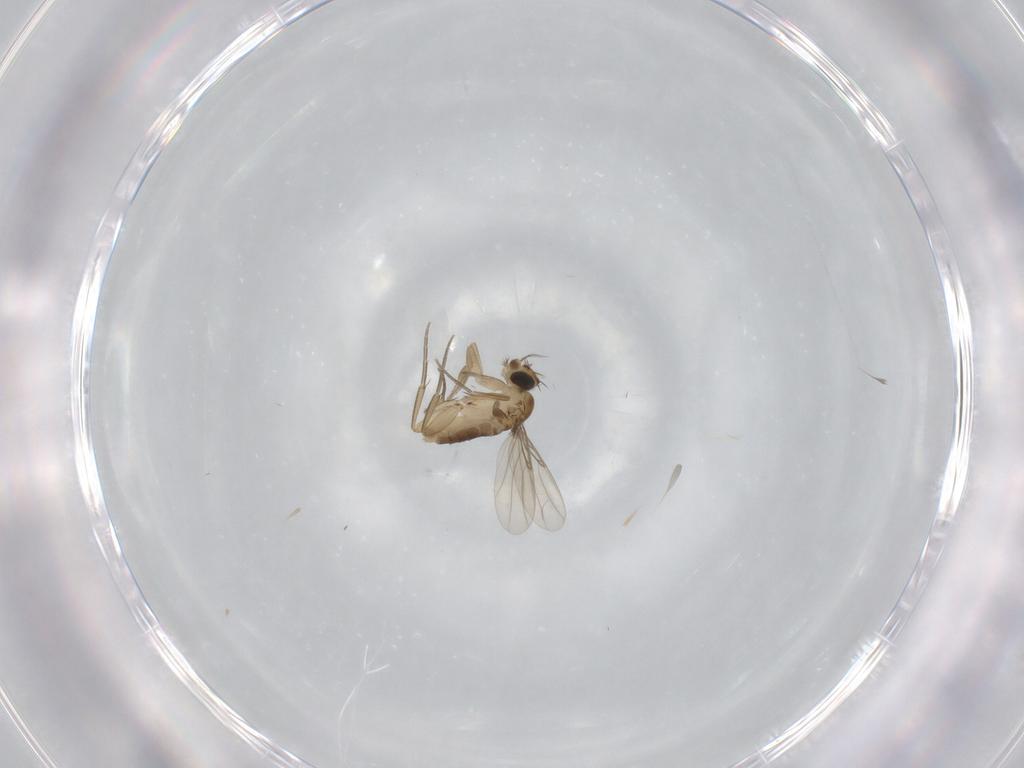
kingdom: Animalia
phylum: Arthropoda
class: Insecta
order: Diptera
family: Phoridae
